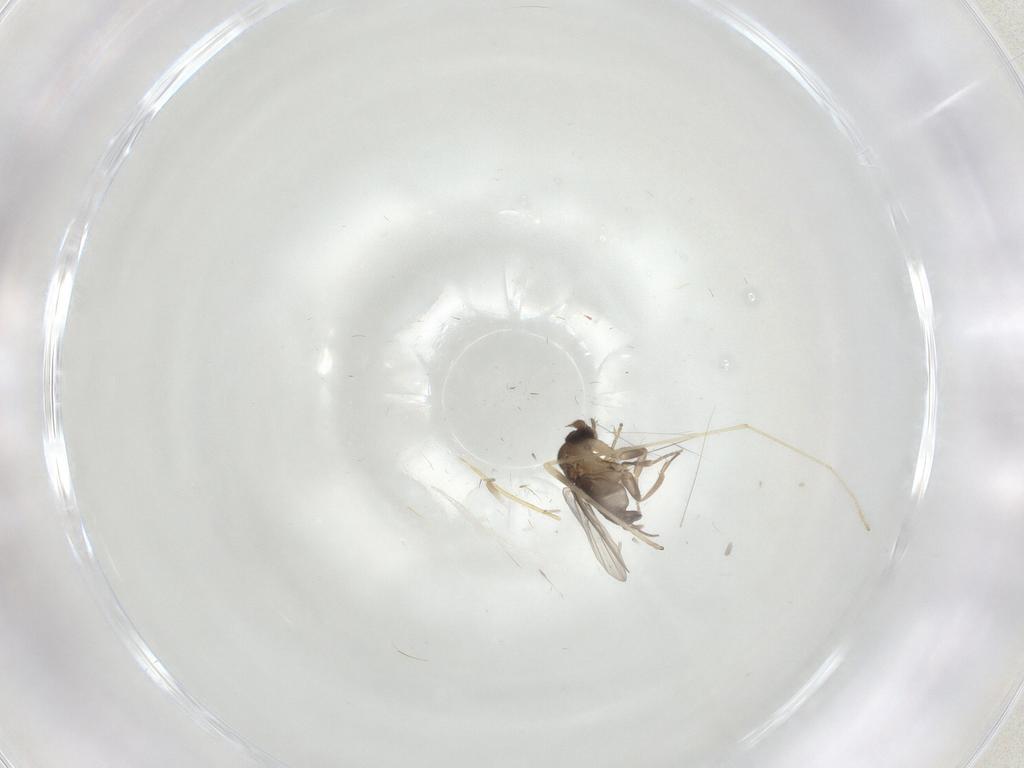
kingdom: Animalia
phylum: Arthropoda
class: Insecta
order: Diptera
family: Phoridae
